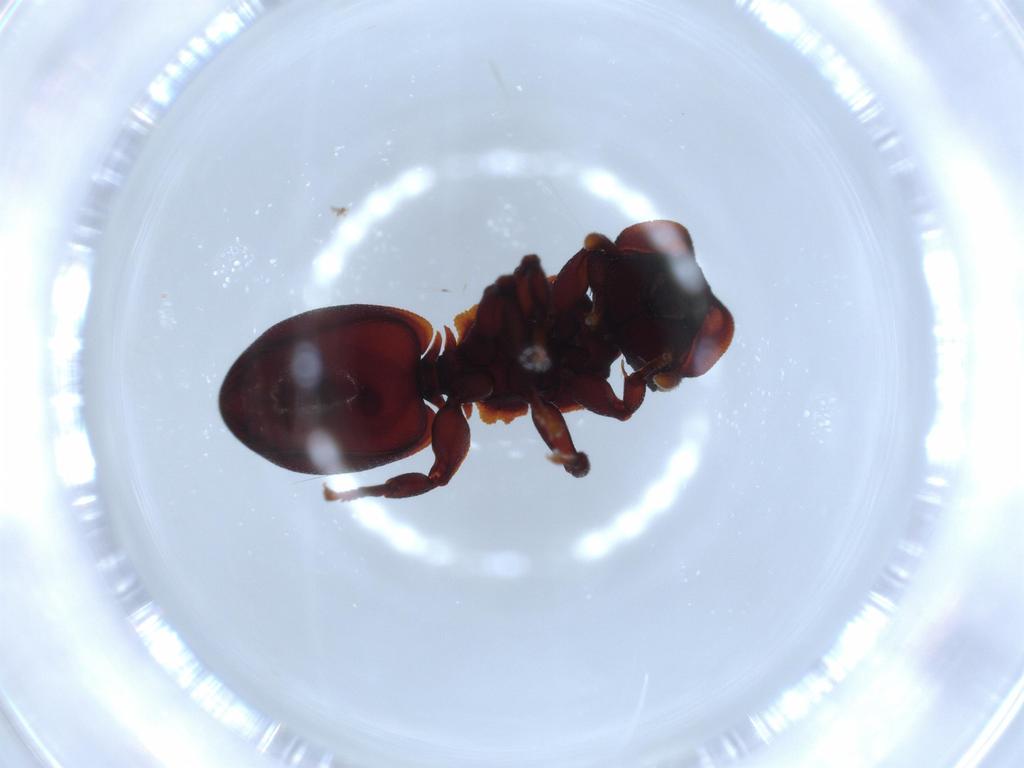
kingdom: Animalia
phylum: Arthropoda
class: Insecta
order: Hymenoptera
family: Formicidae
